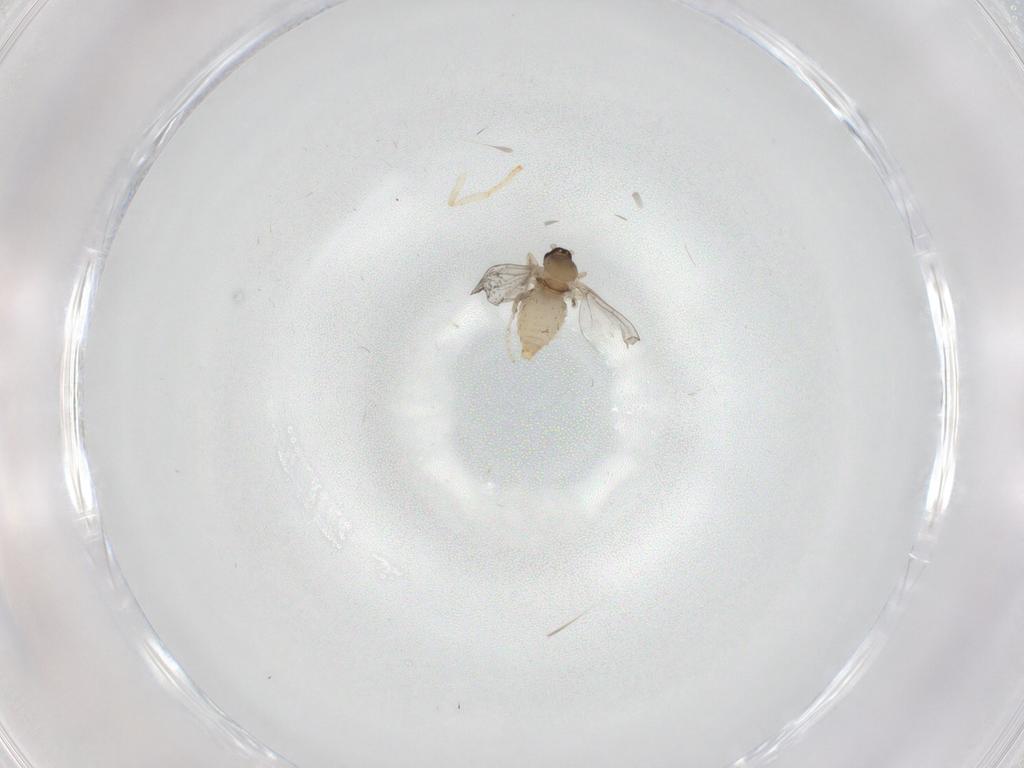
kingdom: Animalia
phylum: Arthropoda
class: Insecta
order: Diptera
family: Cecidomyiidae
